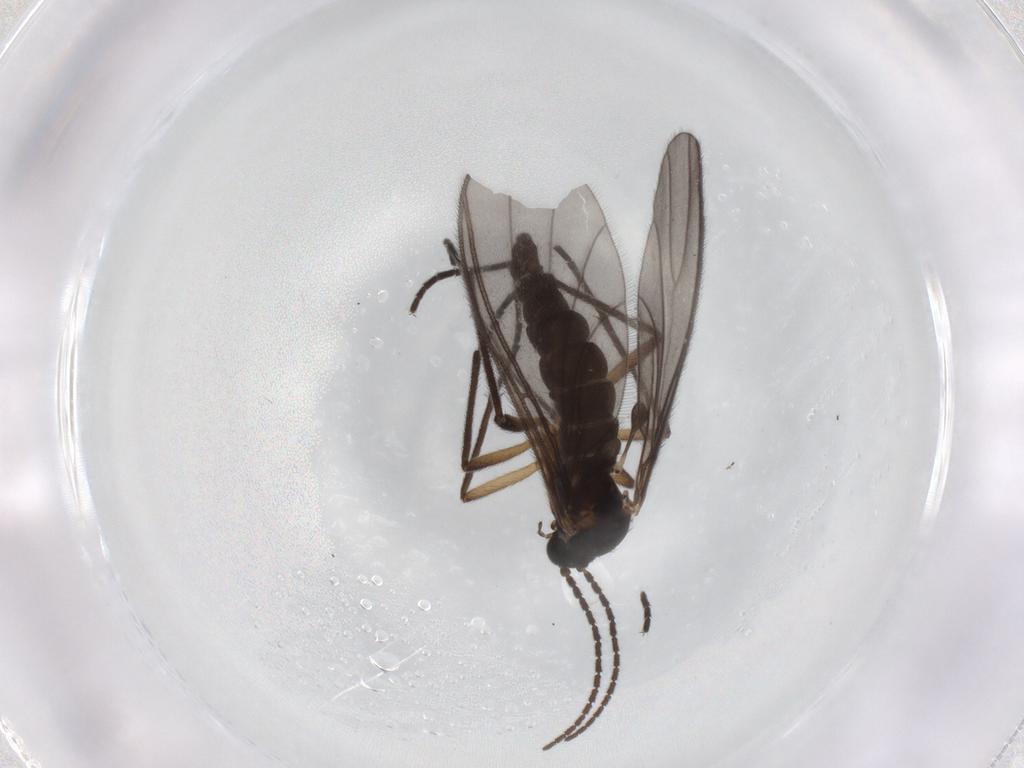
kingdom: Animalia
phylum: Arthropoda
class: Insecta
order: Diptera
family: Sciaridae
